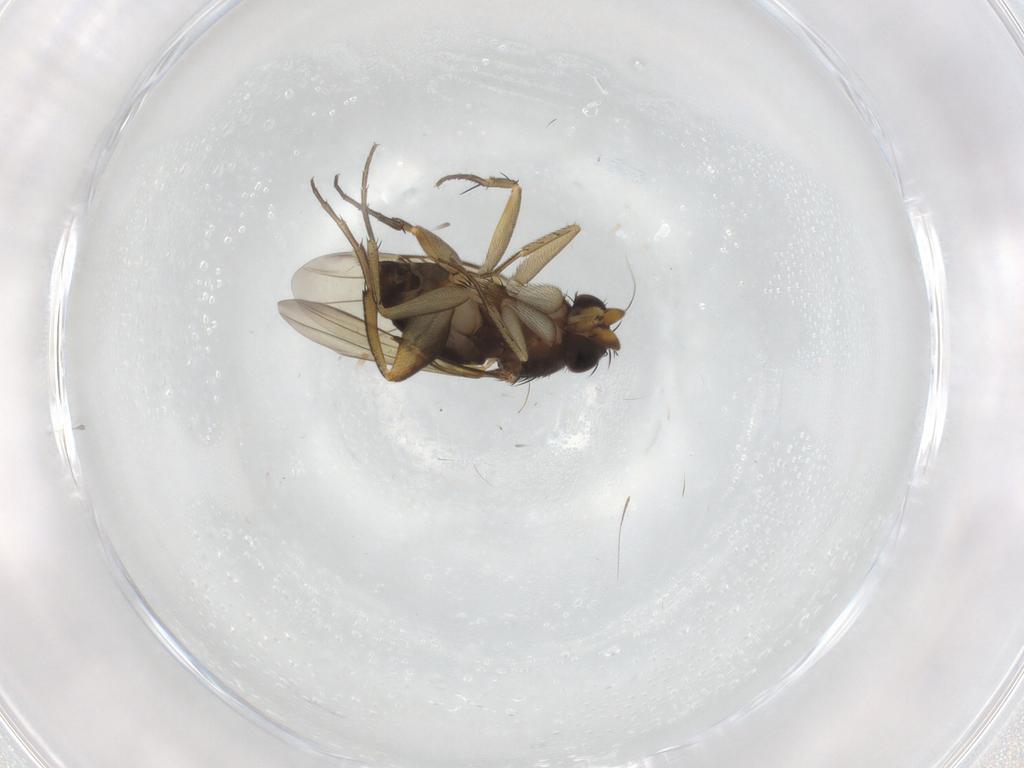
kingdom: Animalia
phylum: Arthropoda
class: Insecta
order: Diptera
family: Phoridae
